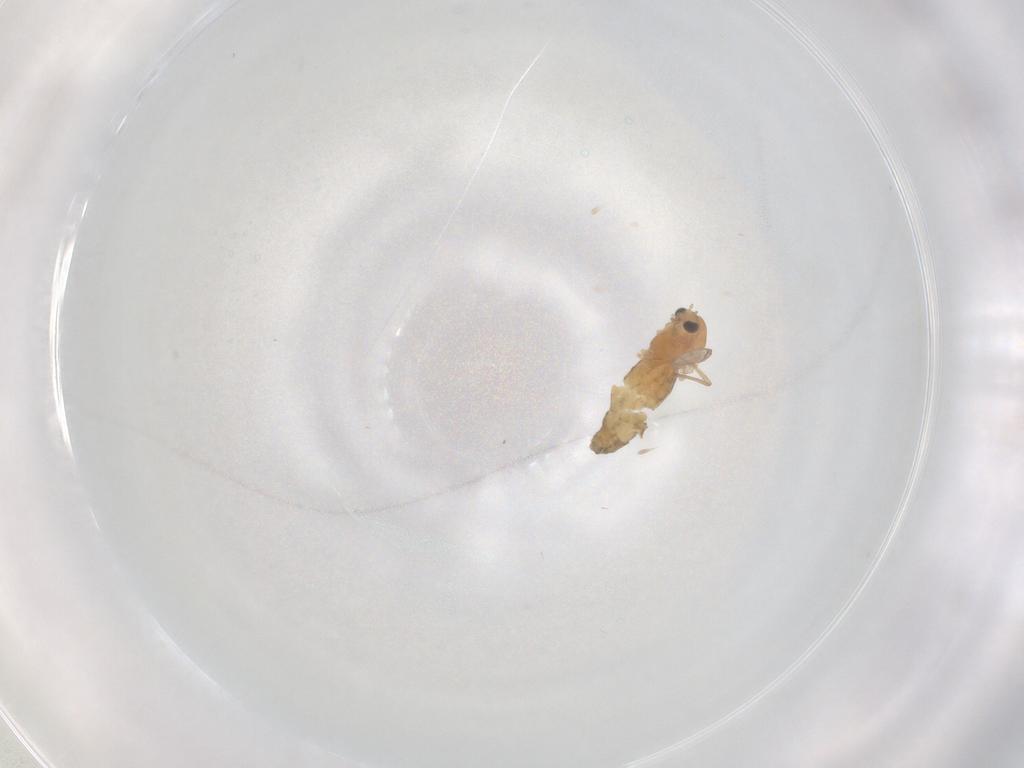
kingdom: Animalia
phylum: Arthropoda
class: Insecta
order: Diptera
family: Chironomidae
